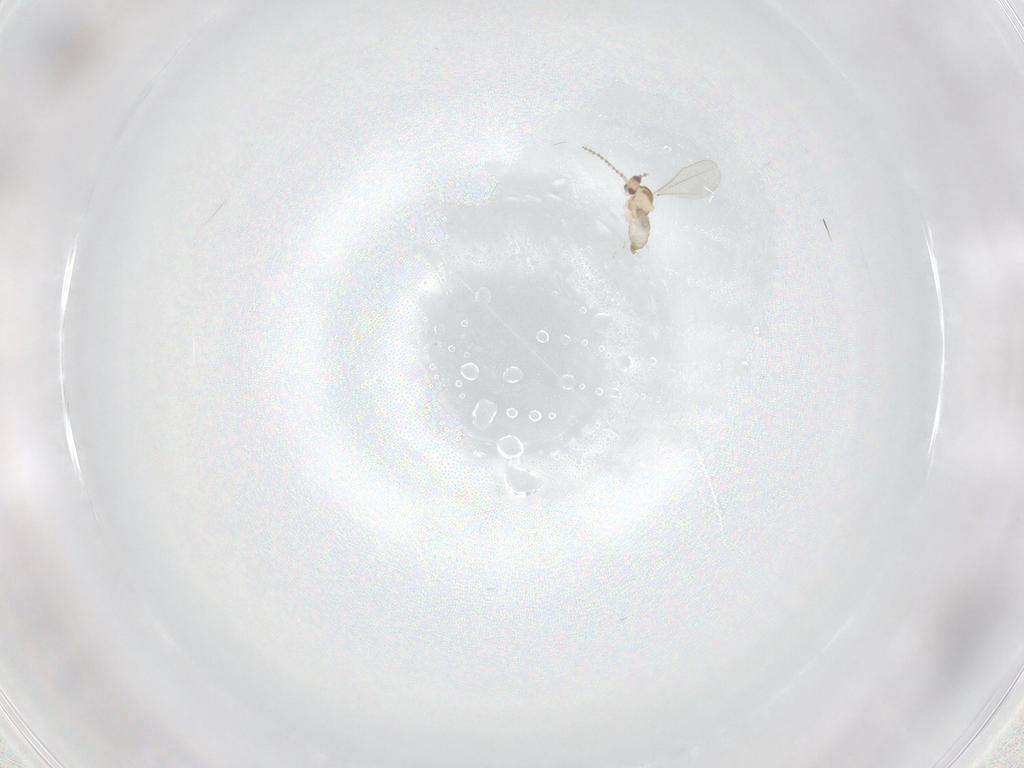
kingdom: Animalia
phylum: Arthropoda
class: Insecta
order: Diptera
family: Cecidomyiidae
